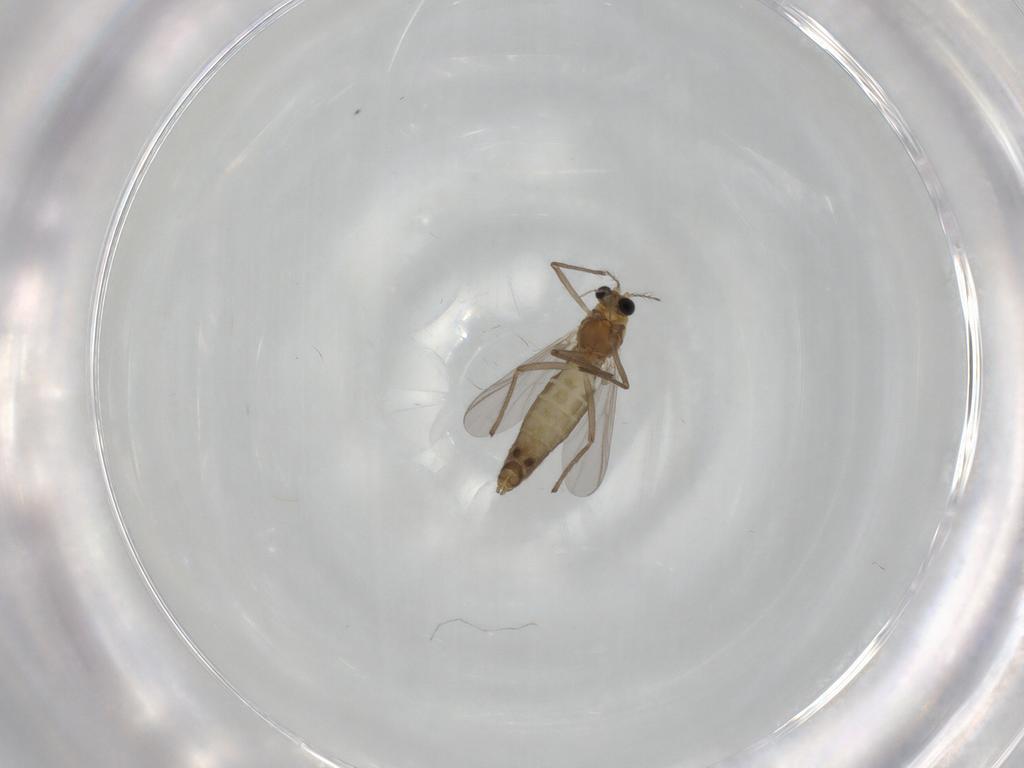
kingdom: Animalia
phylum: Arthropoda
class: Insecta
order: Diptera
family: Chironomidae
